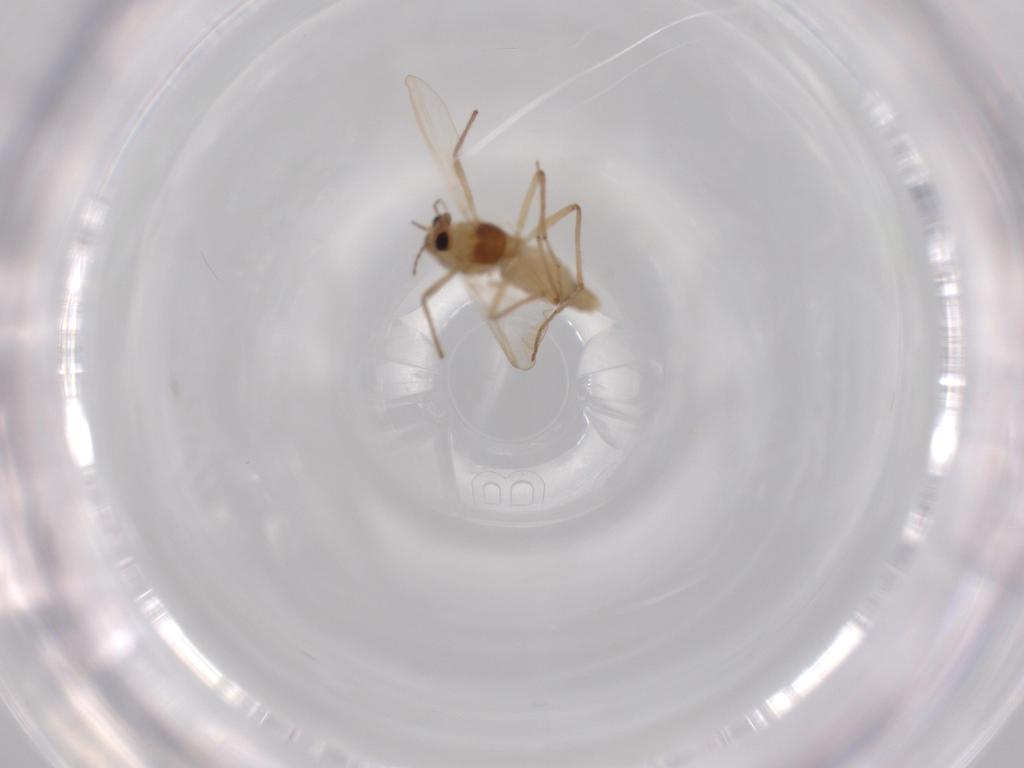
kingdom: Animalia
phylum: Arthropoda
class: Insecta
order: Diptera
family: Chironomidae
